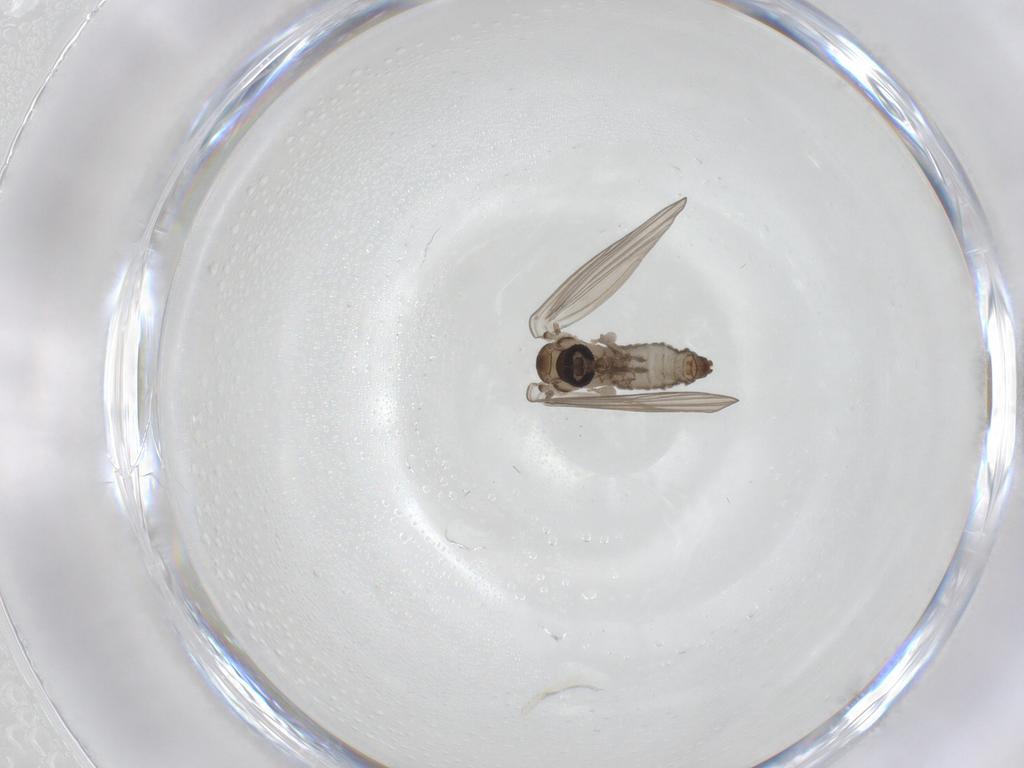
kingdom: Animalia
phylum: Arthropoda
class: Insecta
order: Diptera
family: Psychodidae
